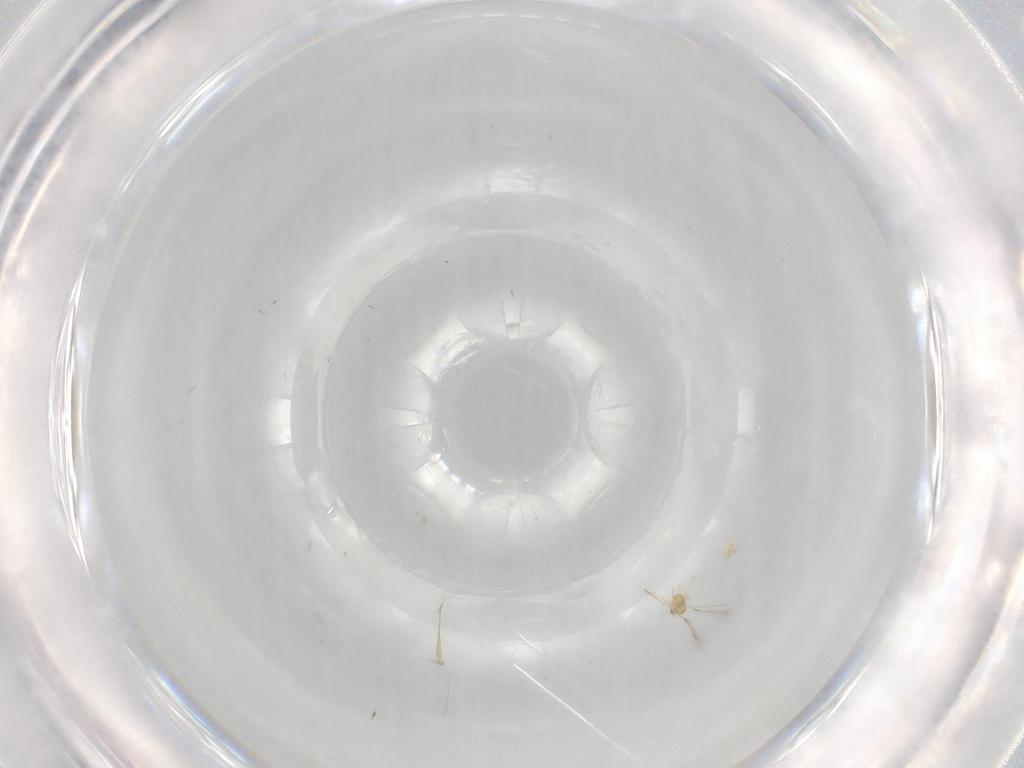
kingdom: Animalia
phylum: Arthropoda
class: Insecta
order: Hymenoptera
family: Mymaridae
